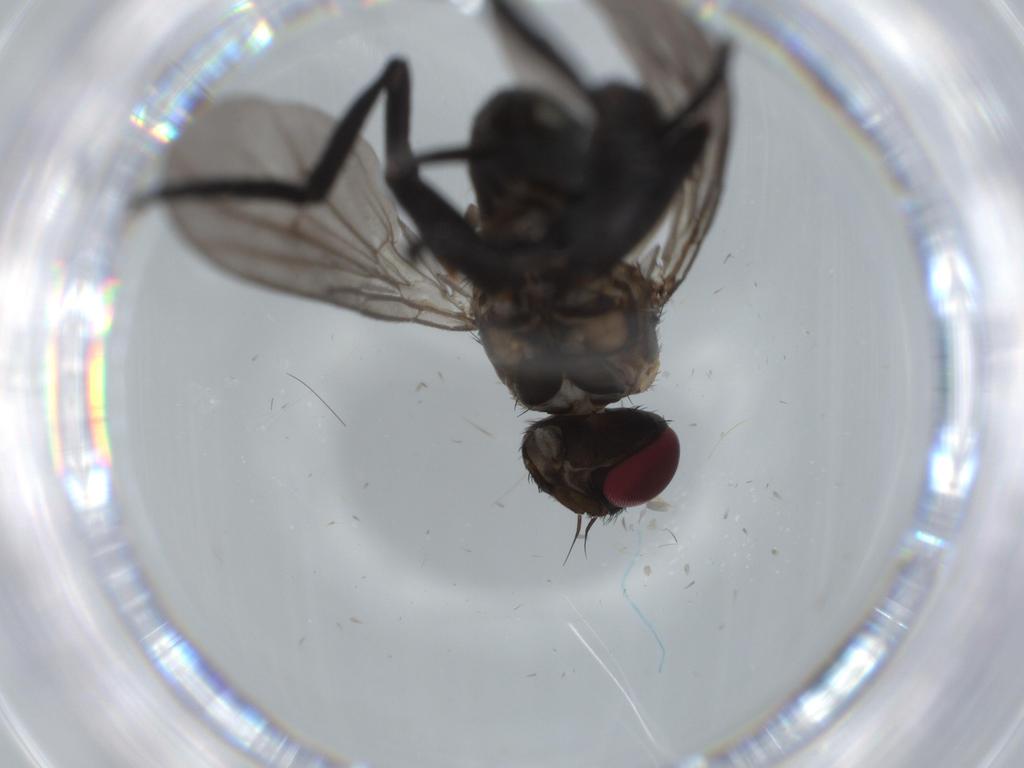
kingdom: Animalia
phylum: Arthropoda
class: Insecta
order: Diptera
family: Calliphoridae
